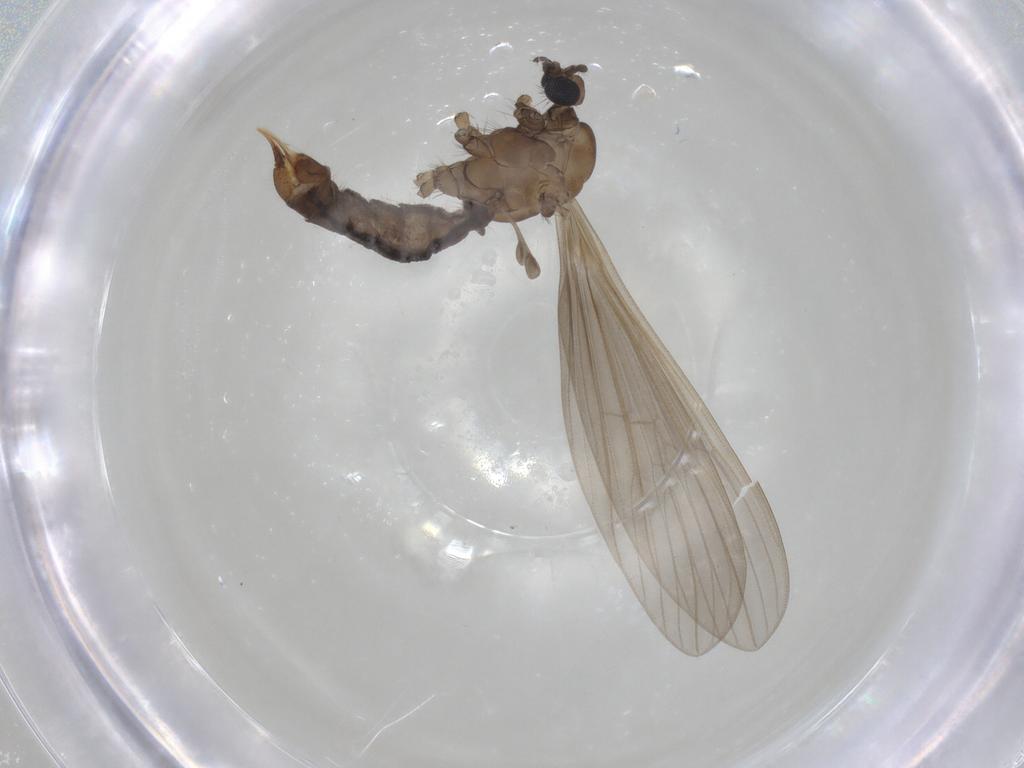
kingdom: Animalia
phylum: Arthropoda
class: Insecta
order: Diptera
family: Limoniidae
